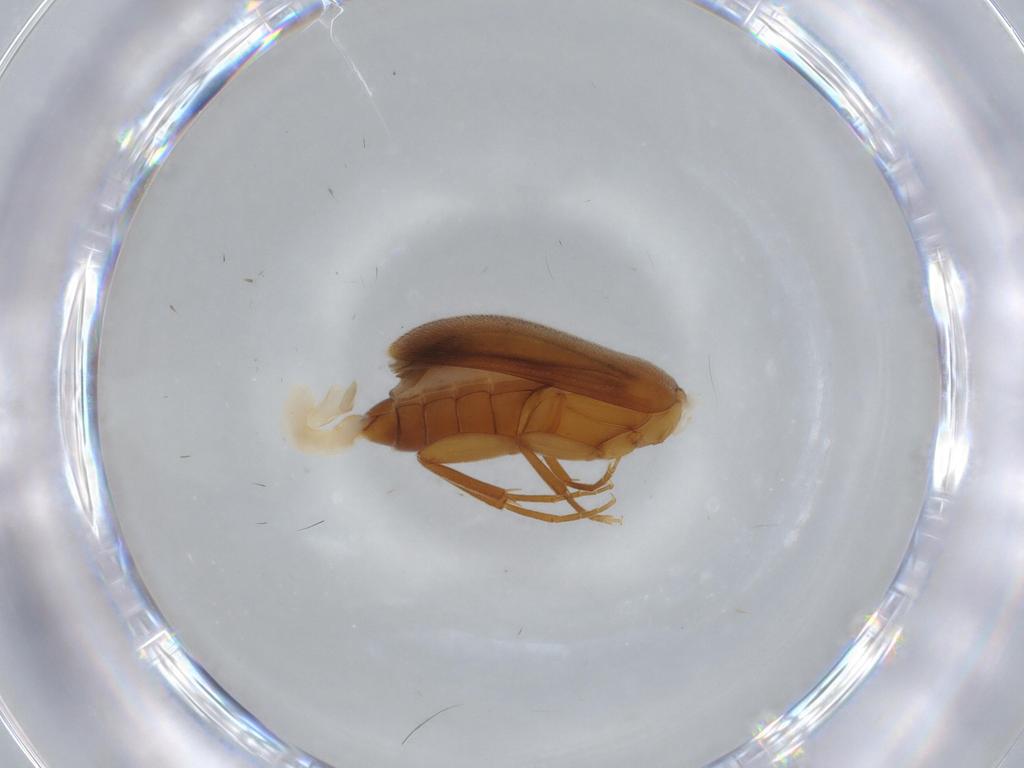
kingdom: Animalia
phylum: Arthropoda
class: Insecta
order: Coleoptera
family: Scraptiidae
